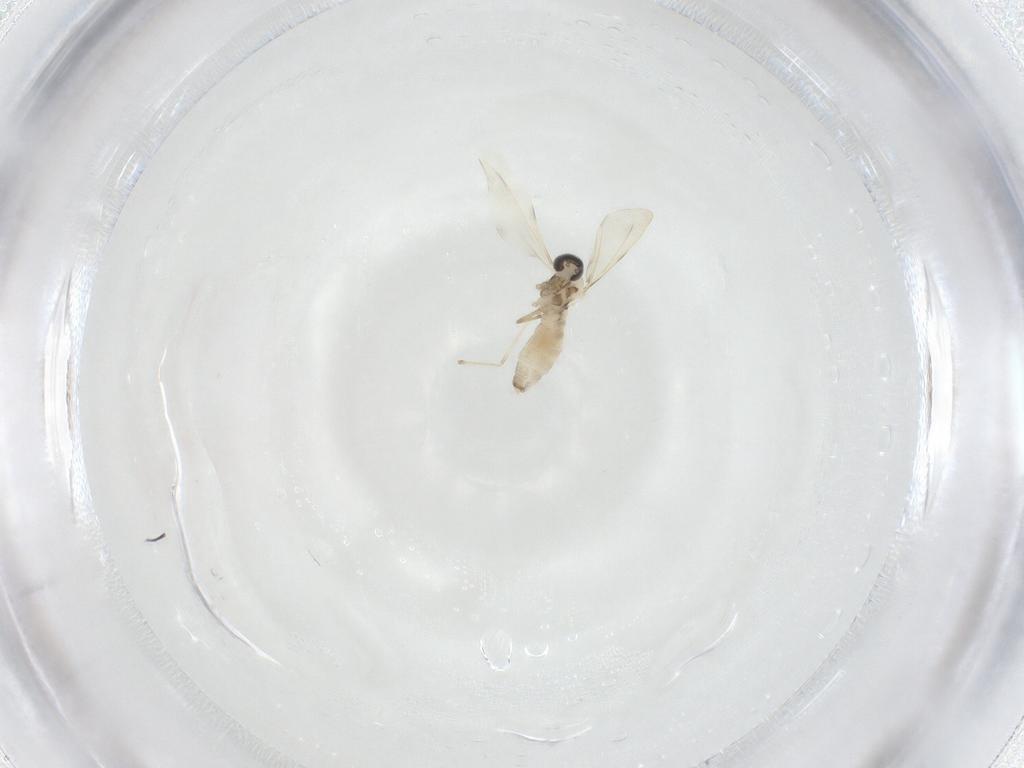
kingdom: Animalia
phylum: Arthropoda
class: Insecta
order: Diptera
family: Cecidomyiidae
